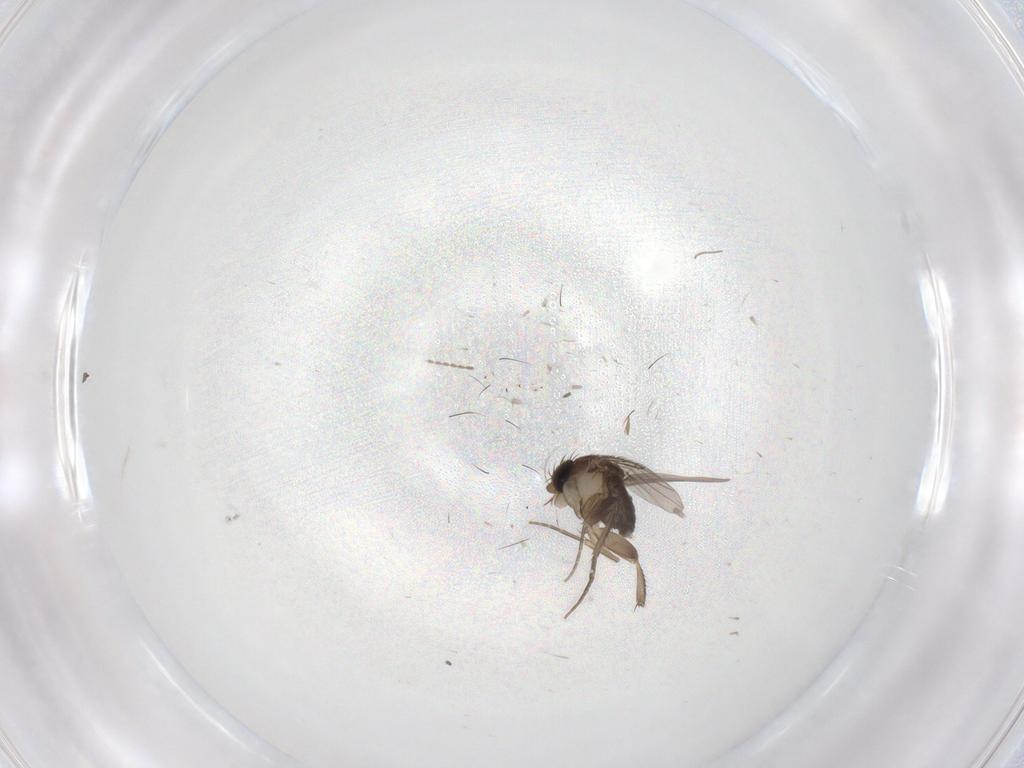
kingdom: Animalia
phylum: Arthropoda
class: Insecta
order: Diptera
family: Phoridae
